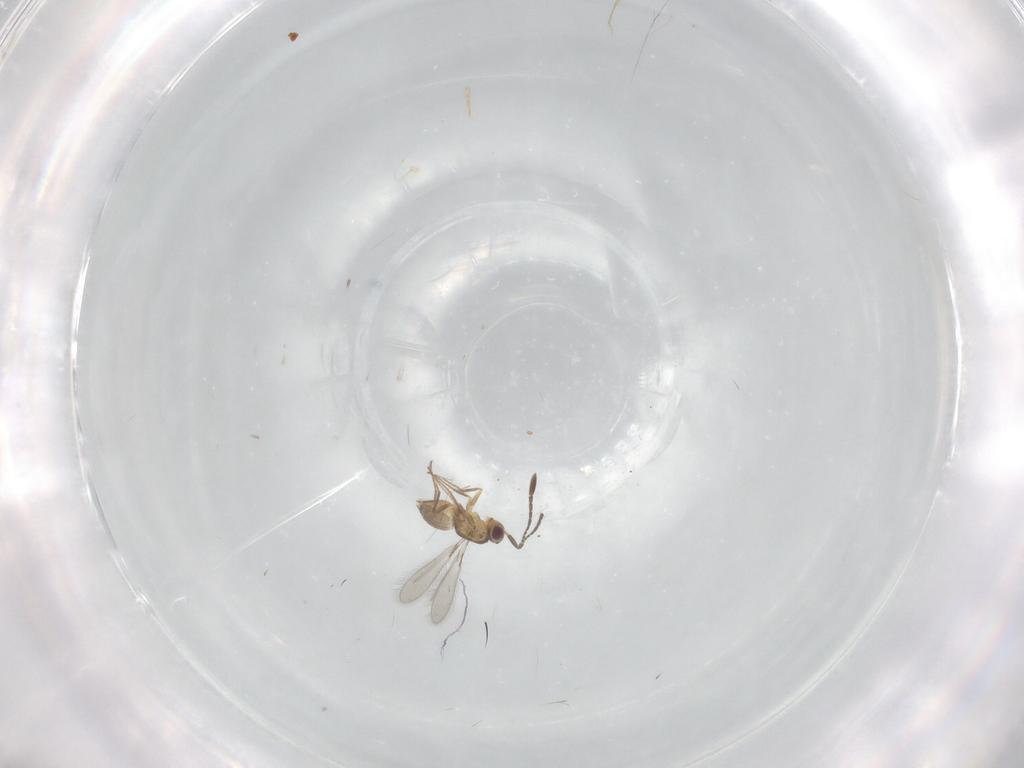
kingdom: Animalia
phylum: Arthropoda
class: Insecta
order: Hymenoptera
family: Mymaridae
